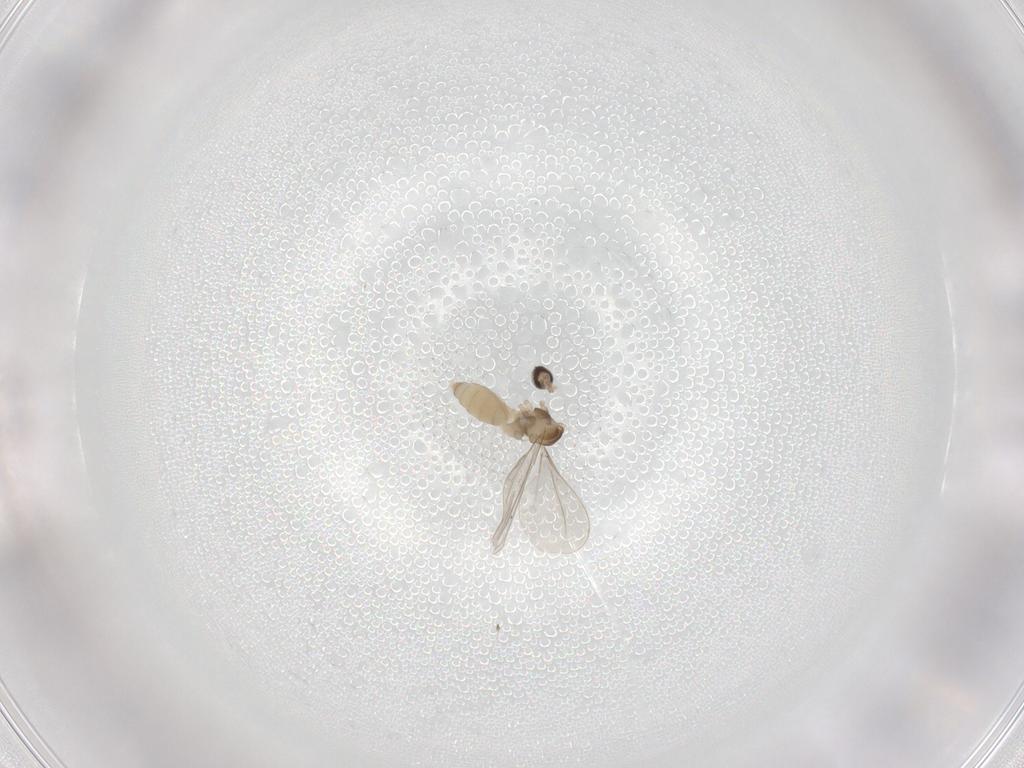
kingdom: Animalia
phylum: Arthropoda
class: Insecta
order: Diptera
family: Cecidomyiidae
